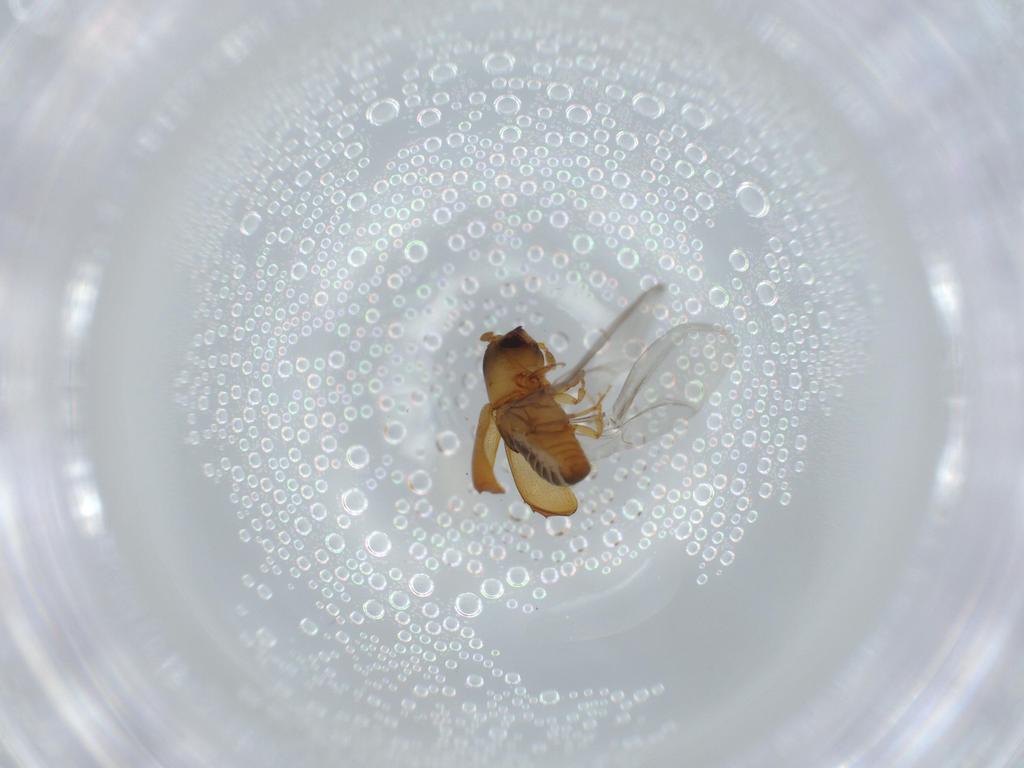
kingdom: Animalia
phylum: Arthropoda
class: Insecta
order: Coleoptera
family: Curculionidae
